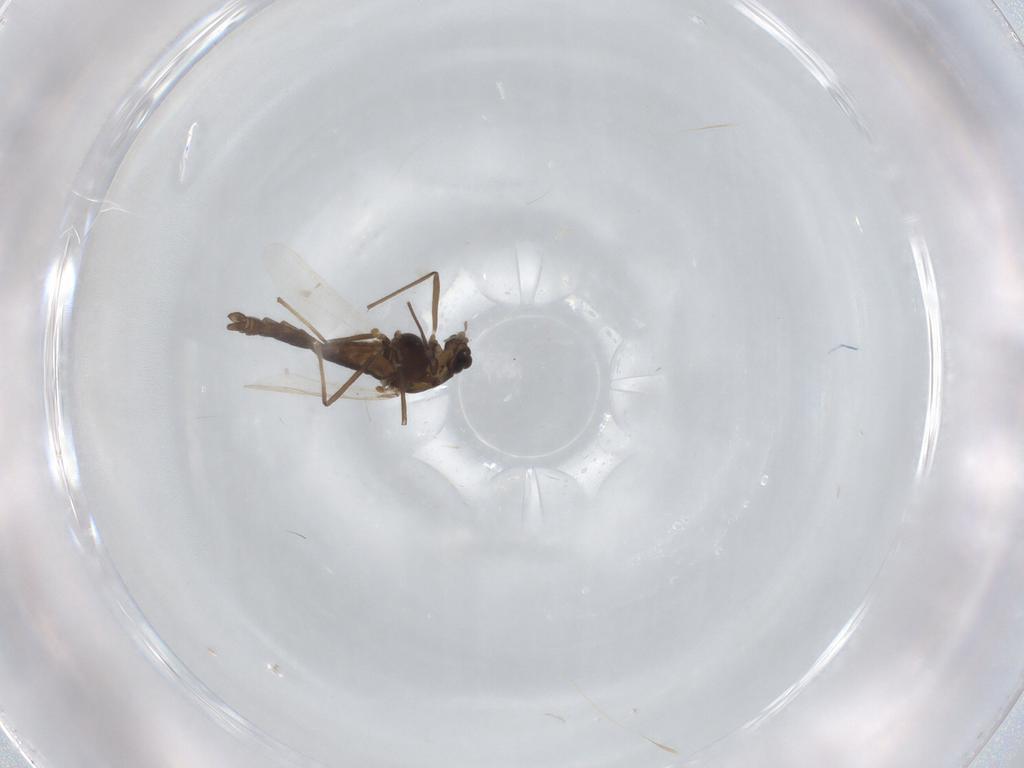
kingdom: Animalia
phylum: Arthropoda
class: Insecta
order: Diptera
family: Chironomidae
